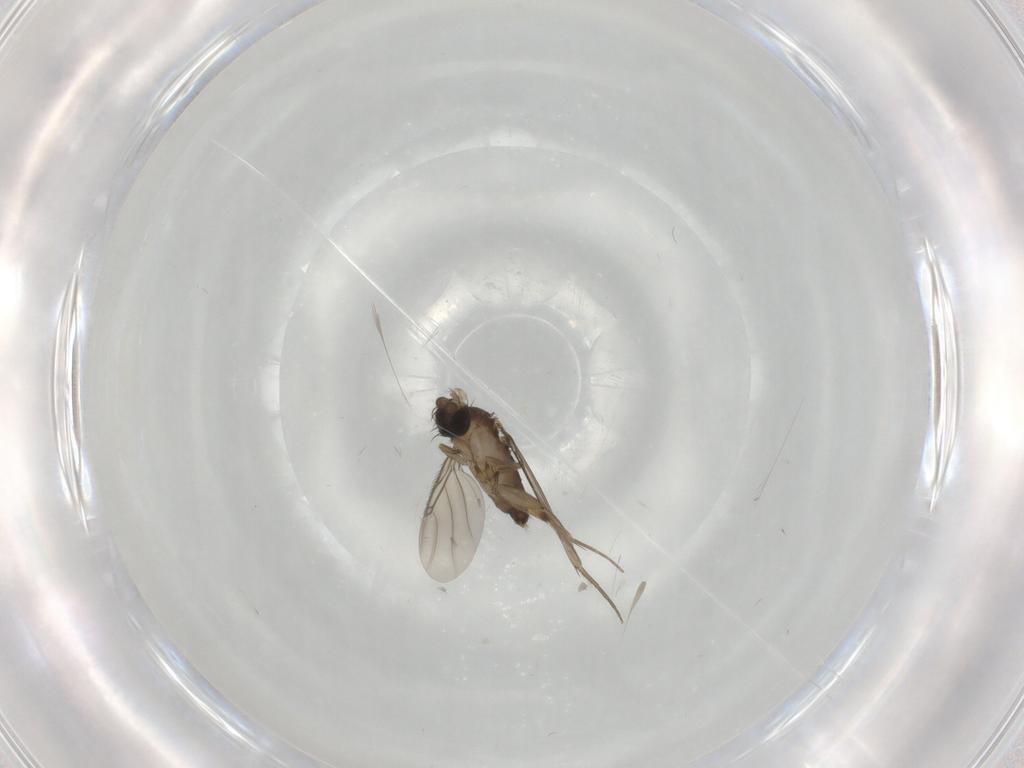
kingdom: Animalia
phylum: Arthropoda
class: Insecta
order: Diptera
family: Phoridae
